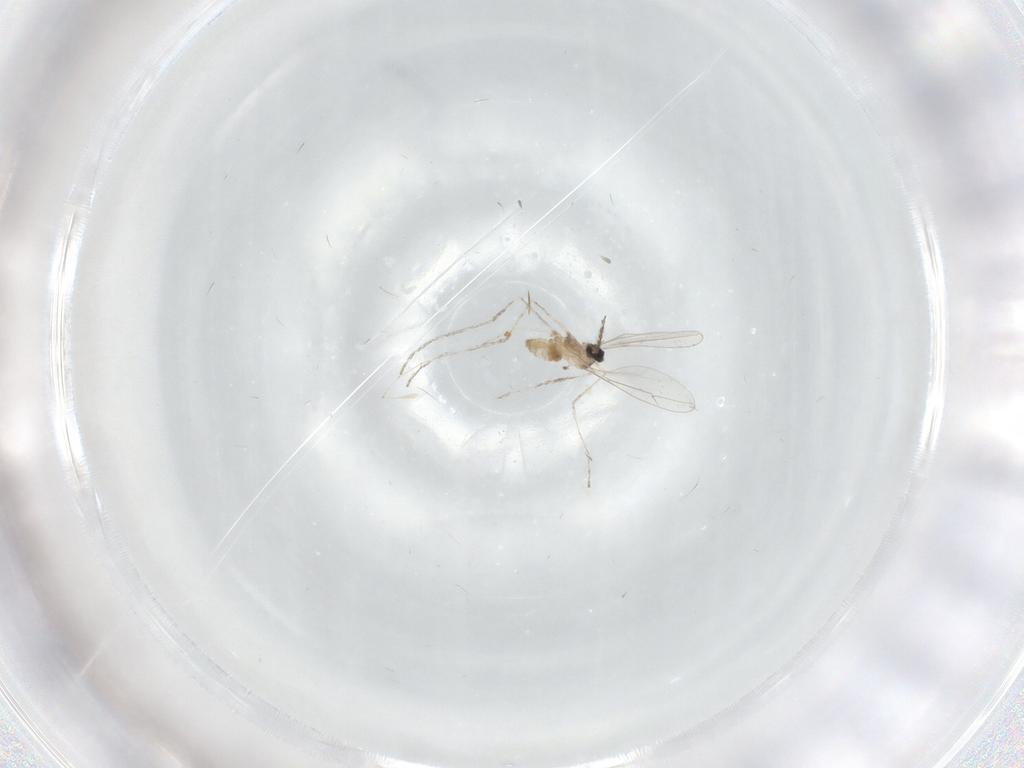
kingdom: Animalia
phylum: Arthropoda
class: Insecta
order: Diptera
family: Cecidomyiidae
